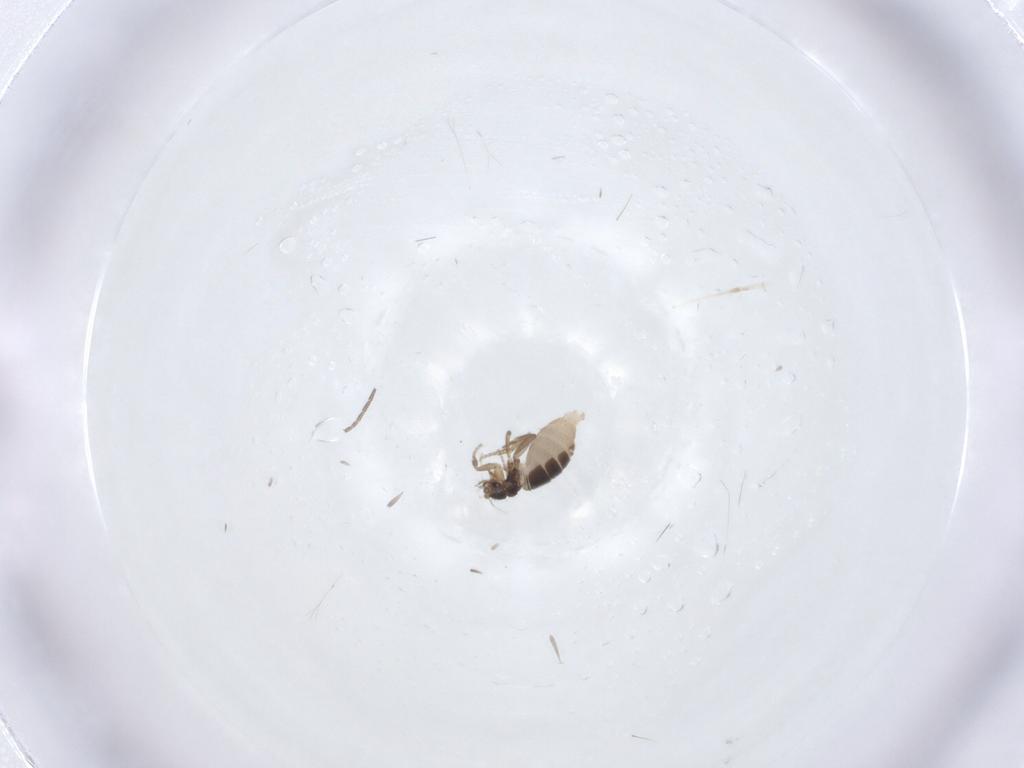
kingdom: Animalia
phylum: Arthropoda
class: Insecta
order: Diptera
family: Phoridae
